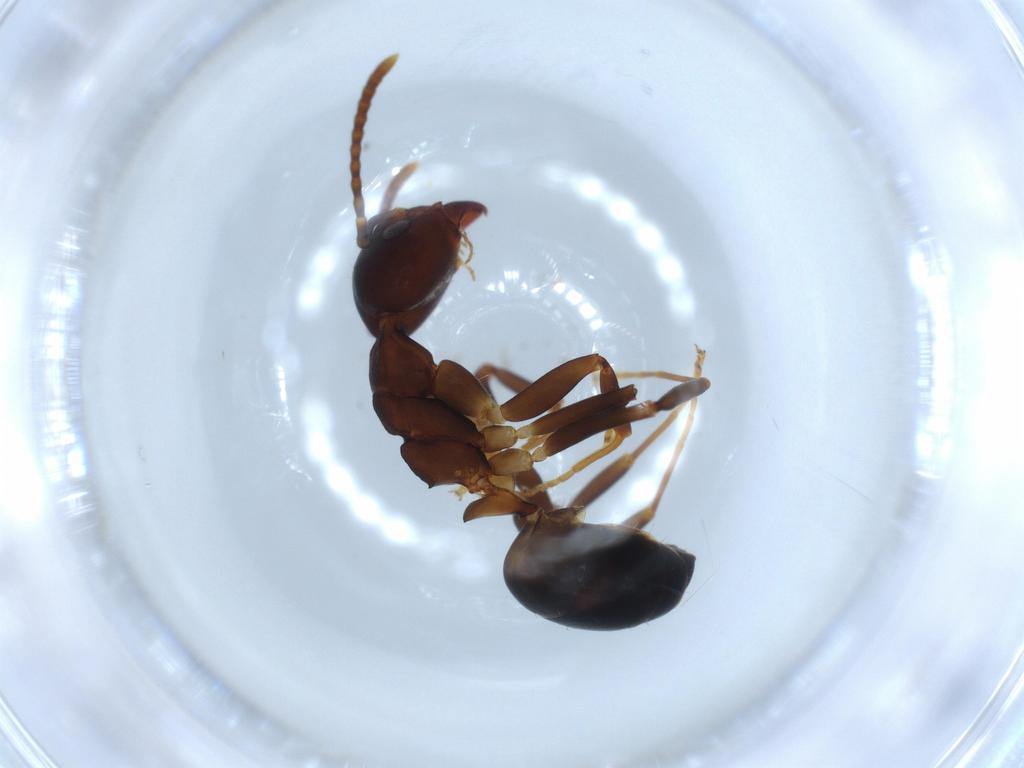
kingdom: Animalia
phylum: Arthropoda
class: Insecta
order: Hymenoptera
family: Formicidae
